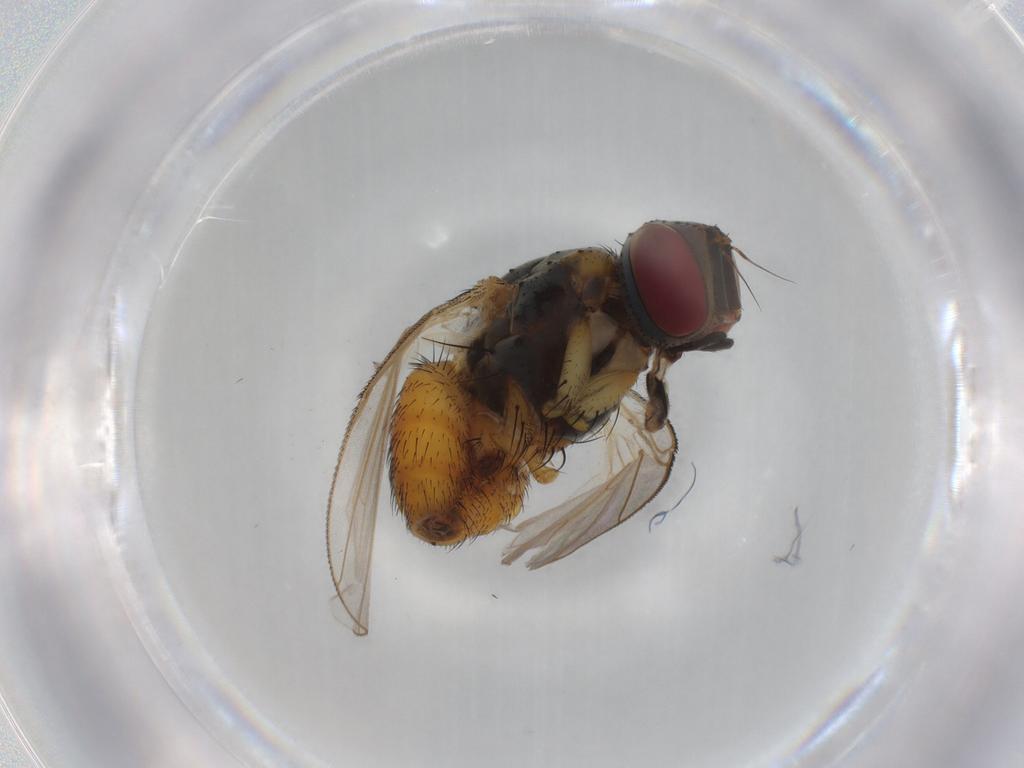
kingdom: Animalia
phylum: Arthropoda
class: Insecta
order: Diptera
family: Muscidae
